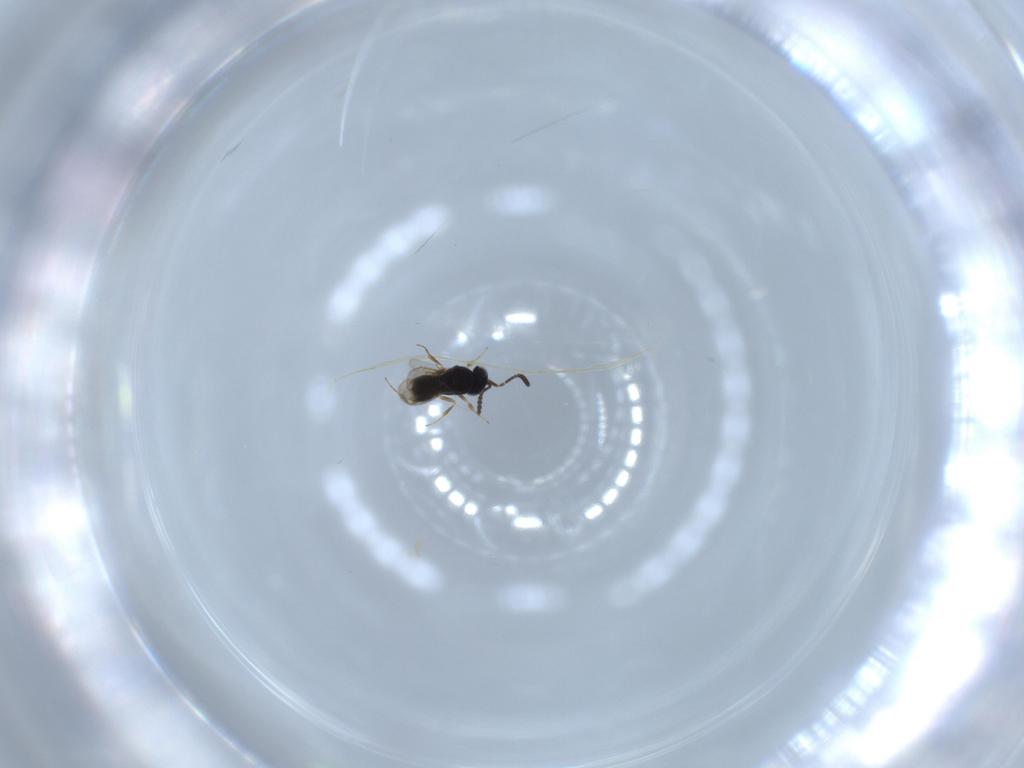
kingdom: Animalia
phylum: Arthropoda
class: Insecta
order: Hymenoptera
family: Scelionidae
